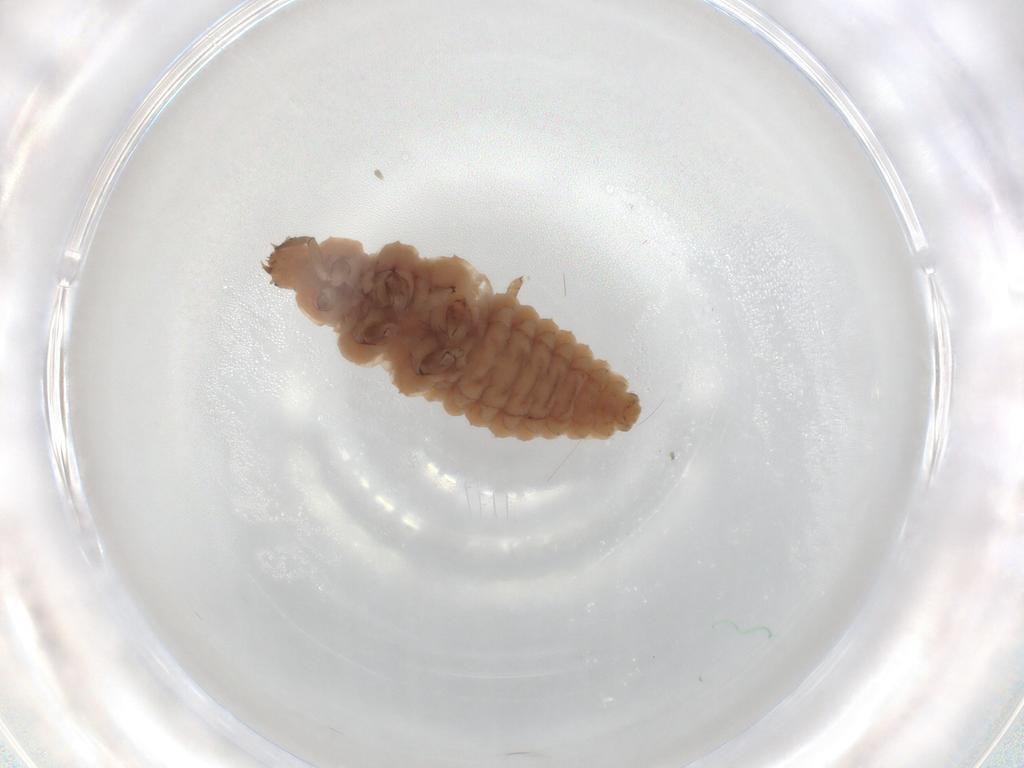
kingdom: Animalia
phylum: Arthropoda
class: Insecta
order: Coleoptera
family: Coccinellidae
